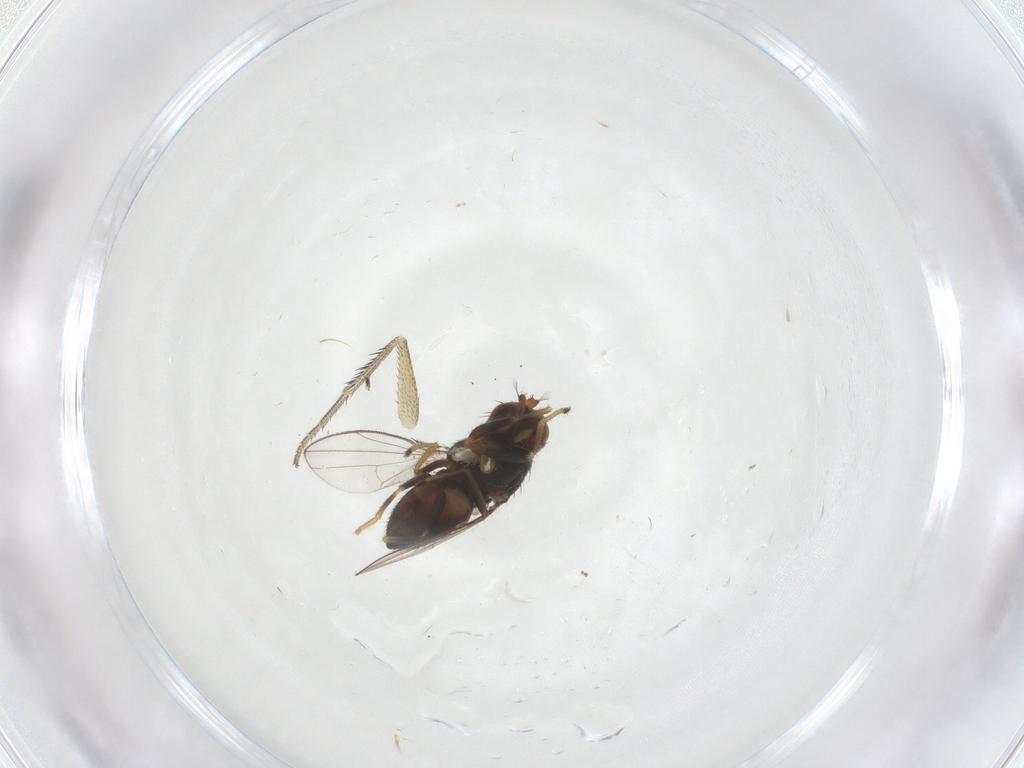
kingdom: Animalia
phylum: Arthropoda
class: Insecta
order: Diptera
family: Ephydridae
